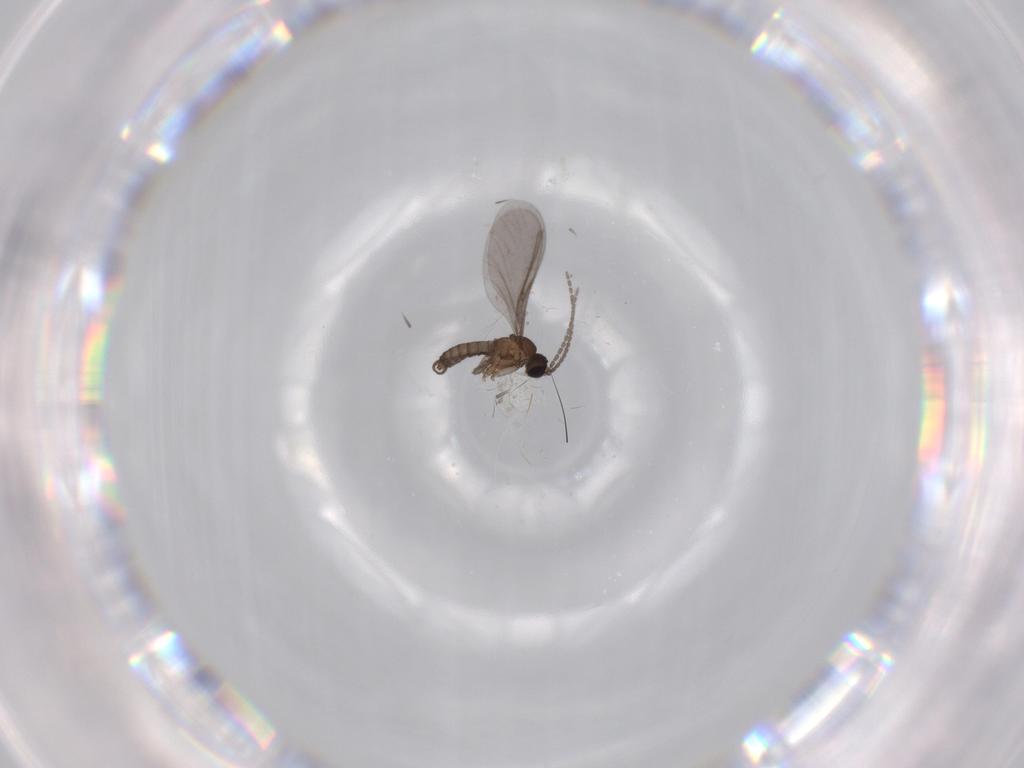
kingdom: Animalia
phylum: Arthropoda
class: Insecta
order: Diptera
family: Sciaridae
